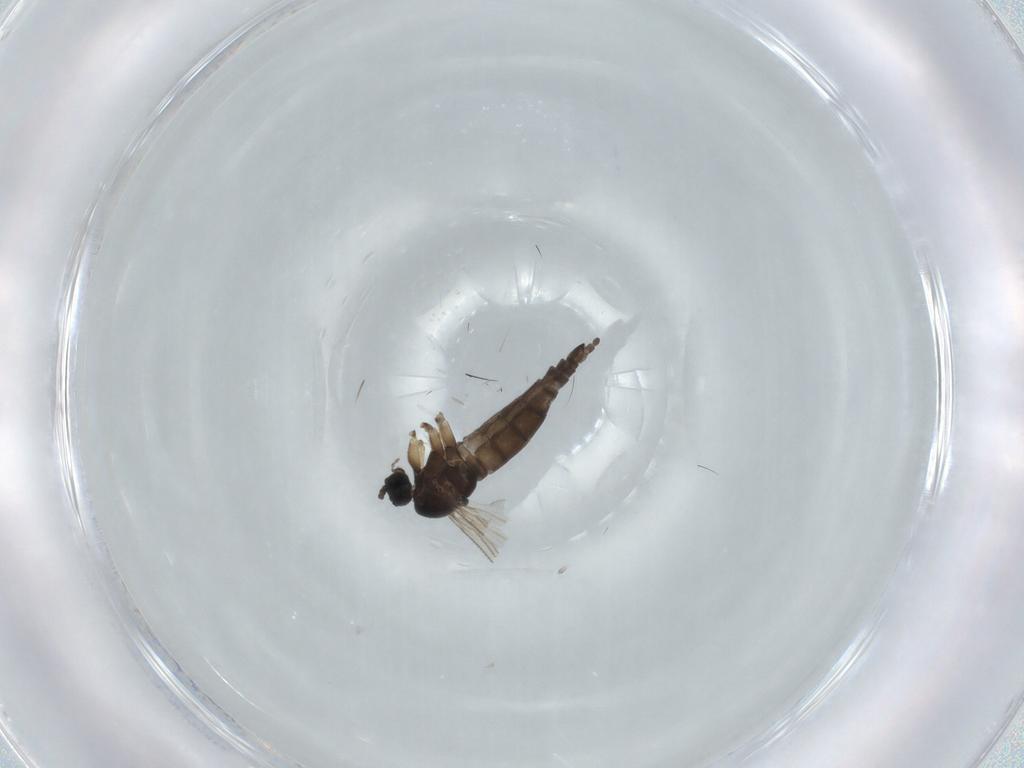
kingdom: Animalia
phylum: Arthropoda
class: Insecta
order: Diptera
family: Sciaridae
